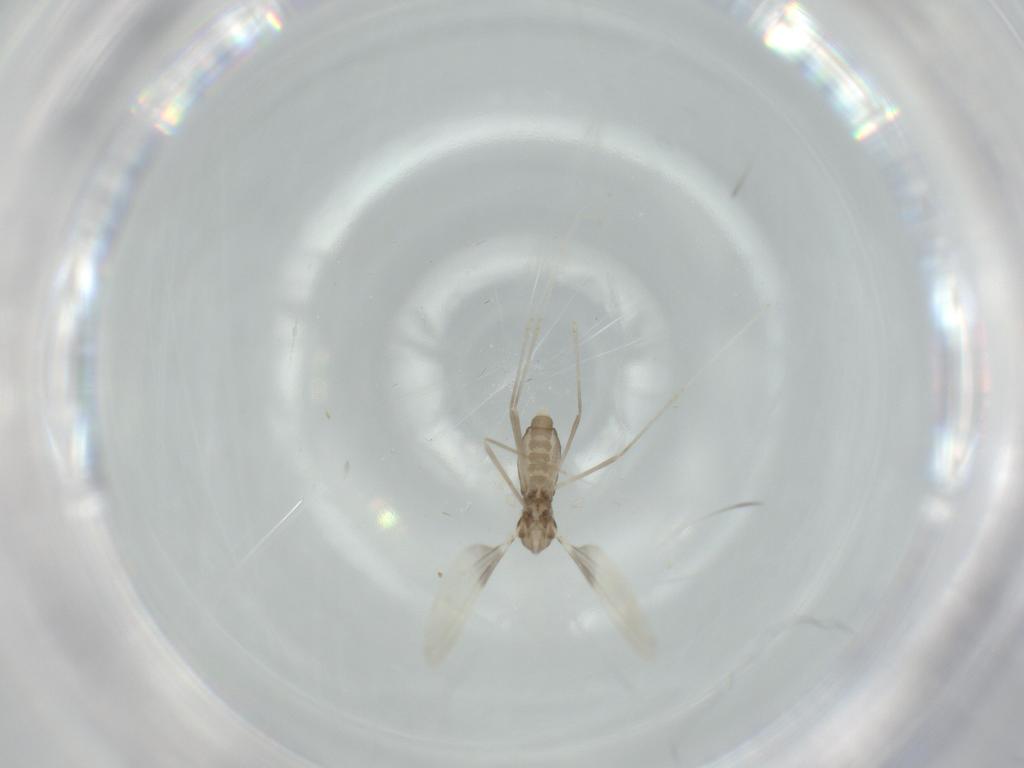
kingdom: Animalia
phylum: Arthropoda
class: Insecta
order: Diptera
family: Cecidomyiidae
